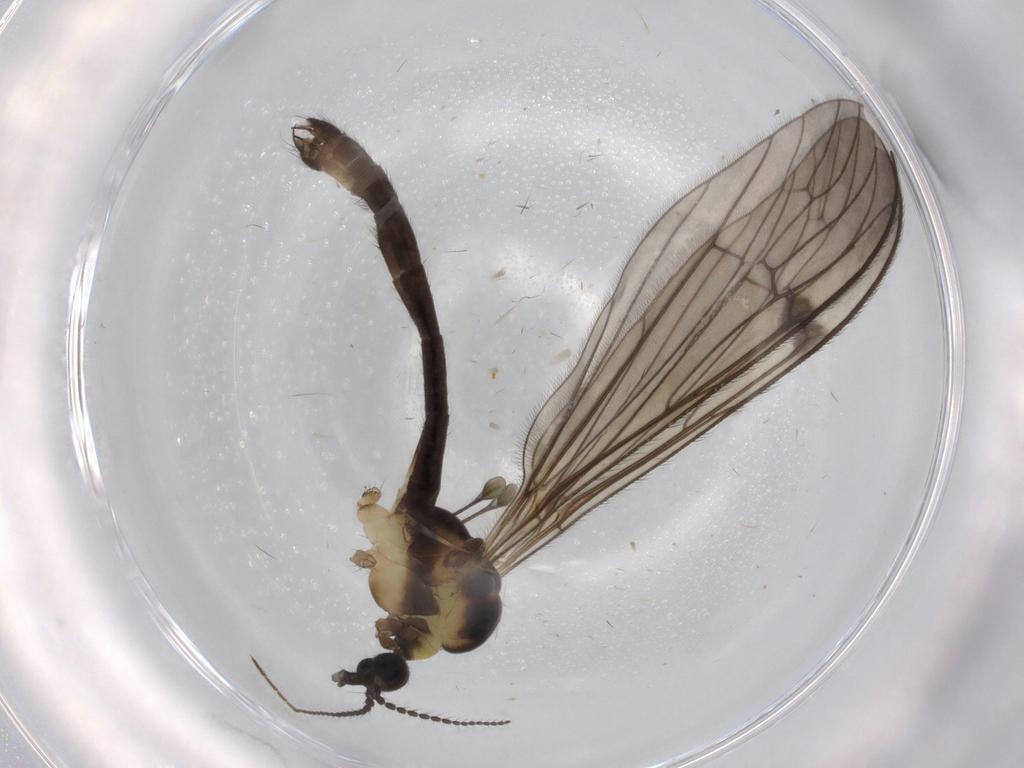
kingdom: Animalia
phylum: Arthropoda
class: Insecta
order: Diptera
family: Limoniidae
